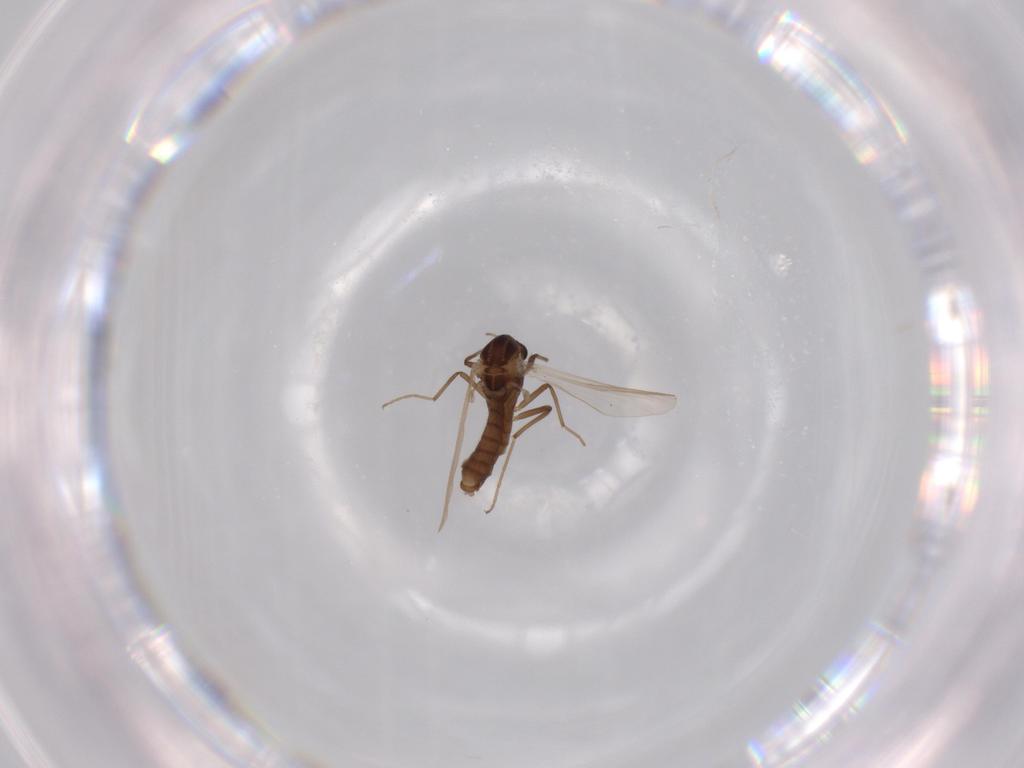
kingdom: Animalia
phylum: Arthropoda
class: Insecta
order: Diptera
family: Chironomidae
